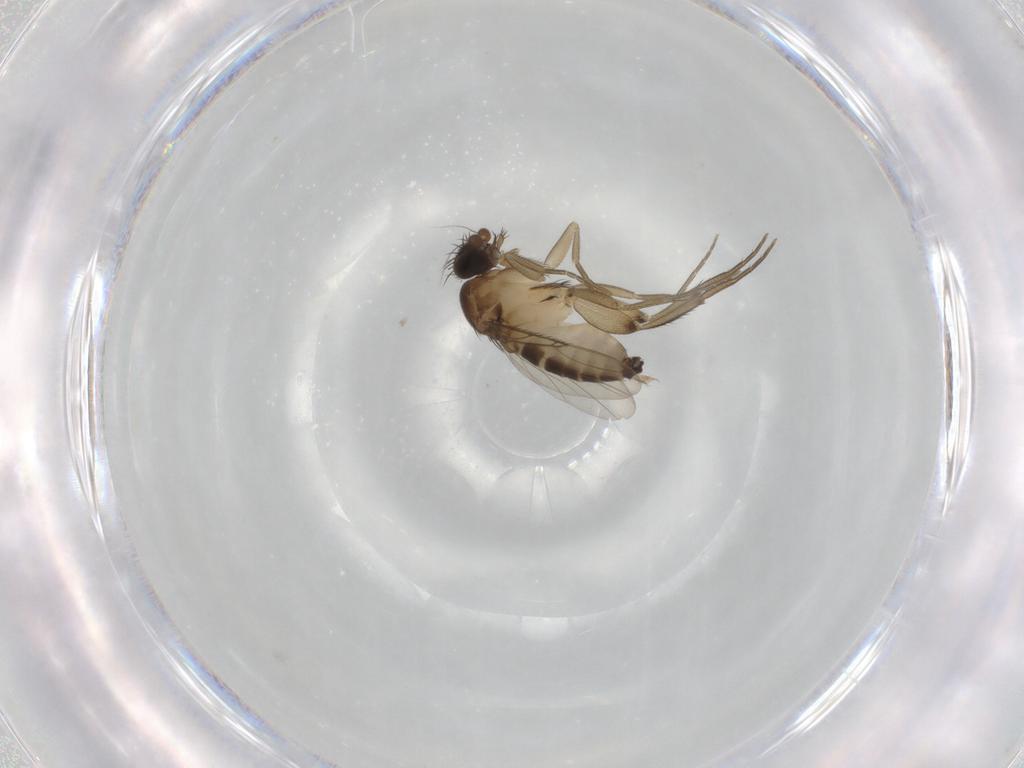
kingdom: Animalia
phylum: Arthropoda
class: Insecta
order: Diptera
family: Phoridae
